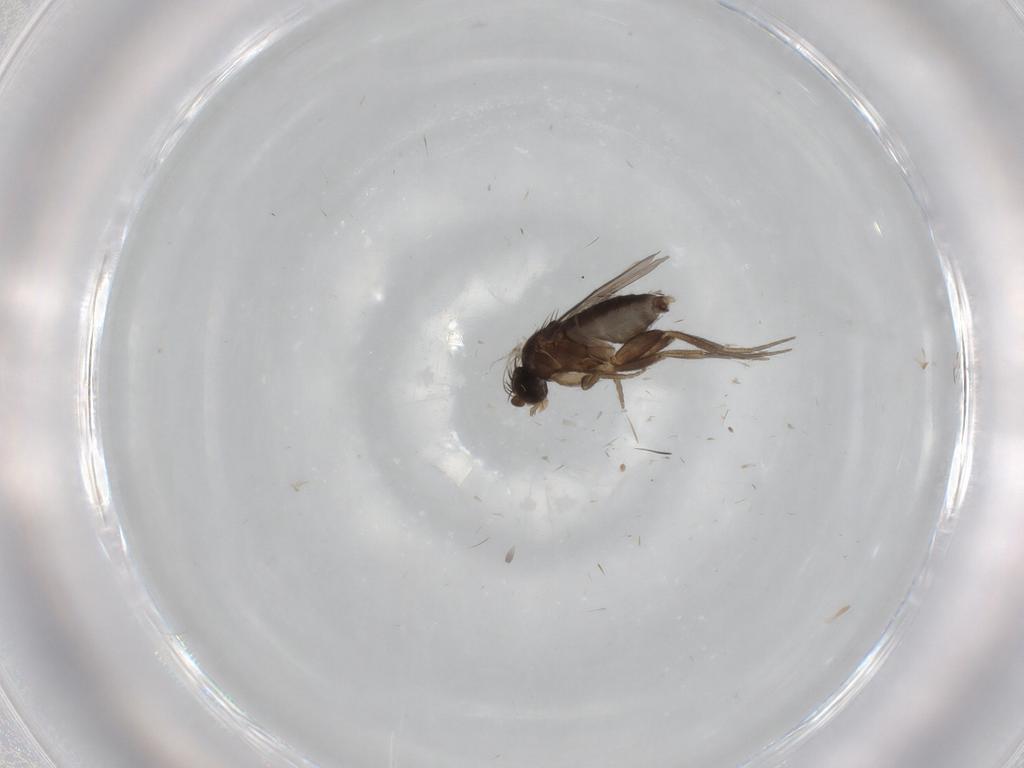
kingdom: Animalia
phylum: Arthropoda
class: Insecta
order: Diptera
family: Phoridae
